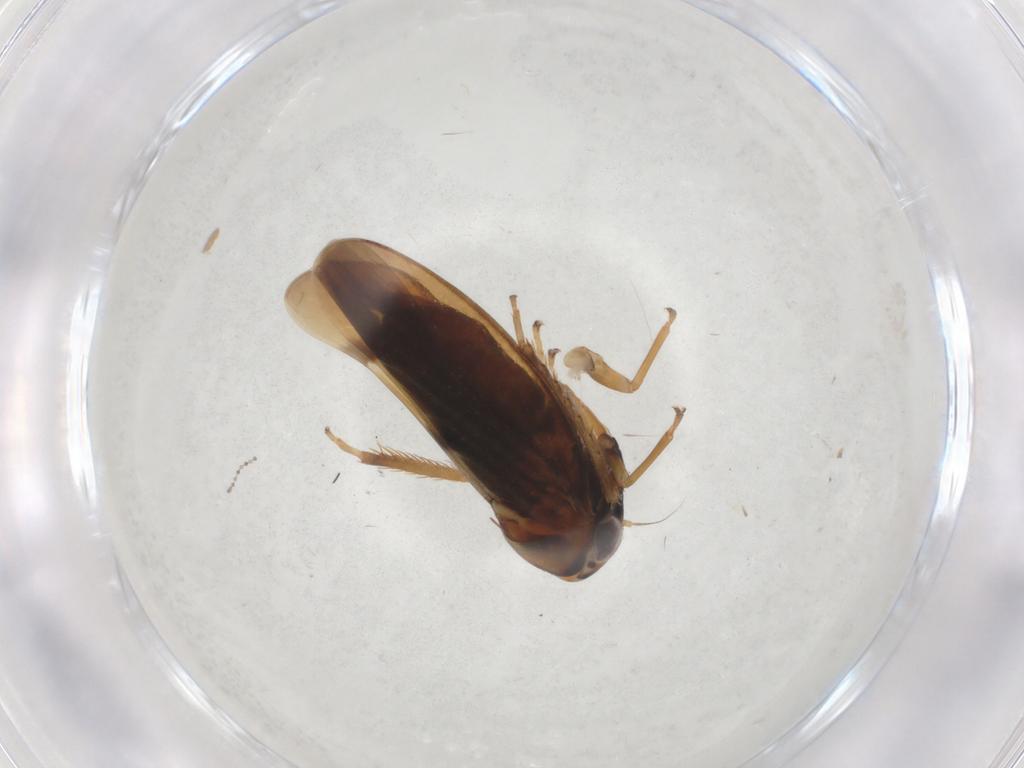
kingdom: Animalia
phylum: Arthropoda
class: Insecta
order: Hemiptera
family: Cicadellidae
